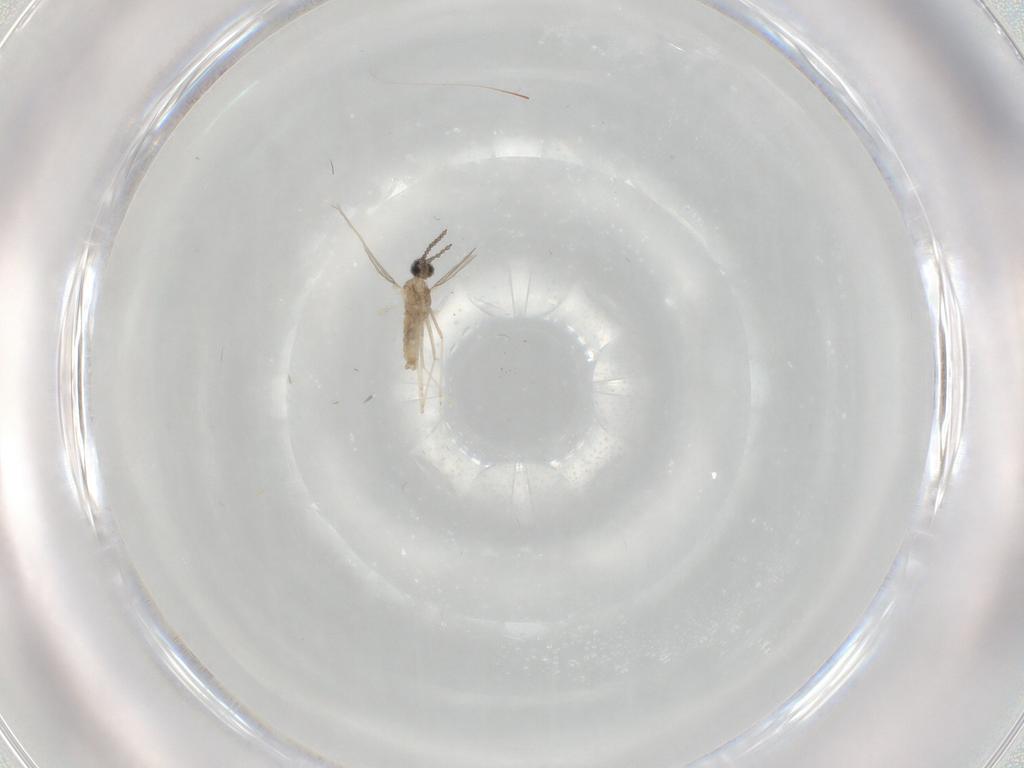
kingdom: Animalia
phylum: Arthropoda
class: Insecta
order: Diptera
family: Cecidomyiidae
